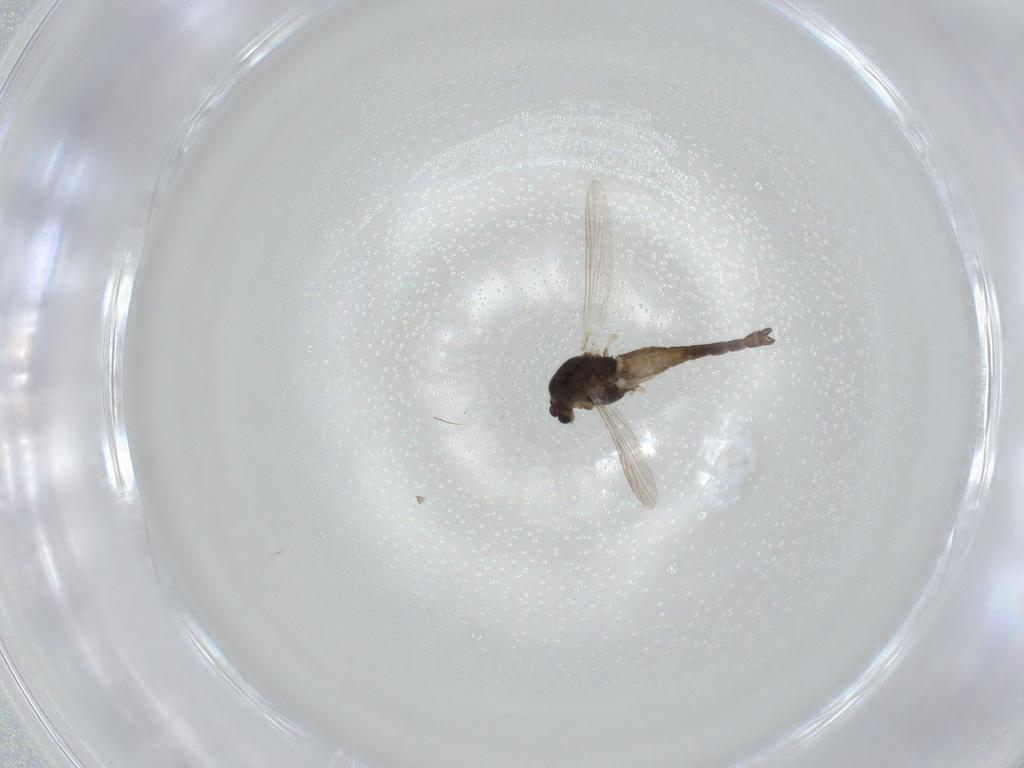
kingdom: Animalia
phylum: Arthropoda
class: Insecta
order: Diptera
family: Chironomidae
